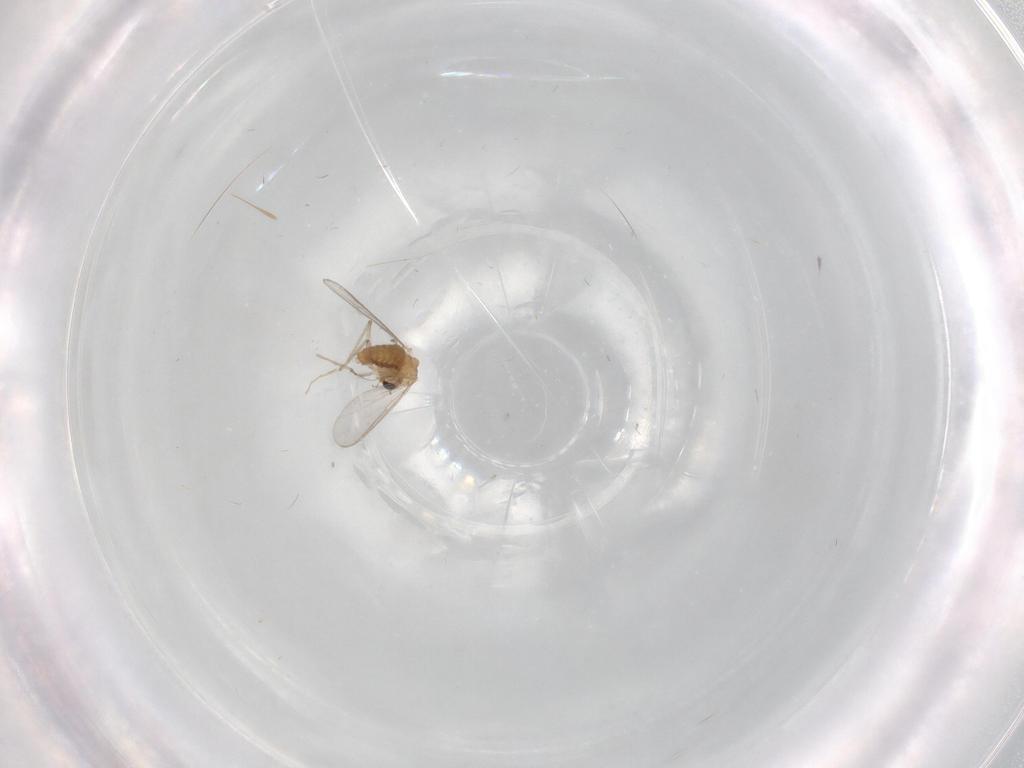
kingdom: Animalia
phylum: Arthropoda
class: Insecta
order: Diptera
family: Chironomidae
